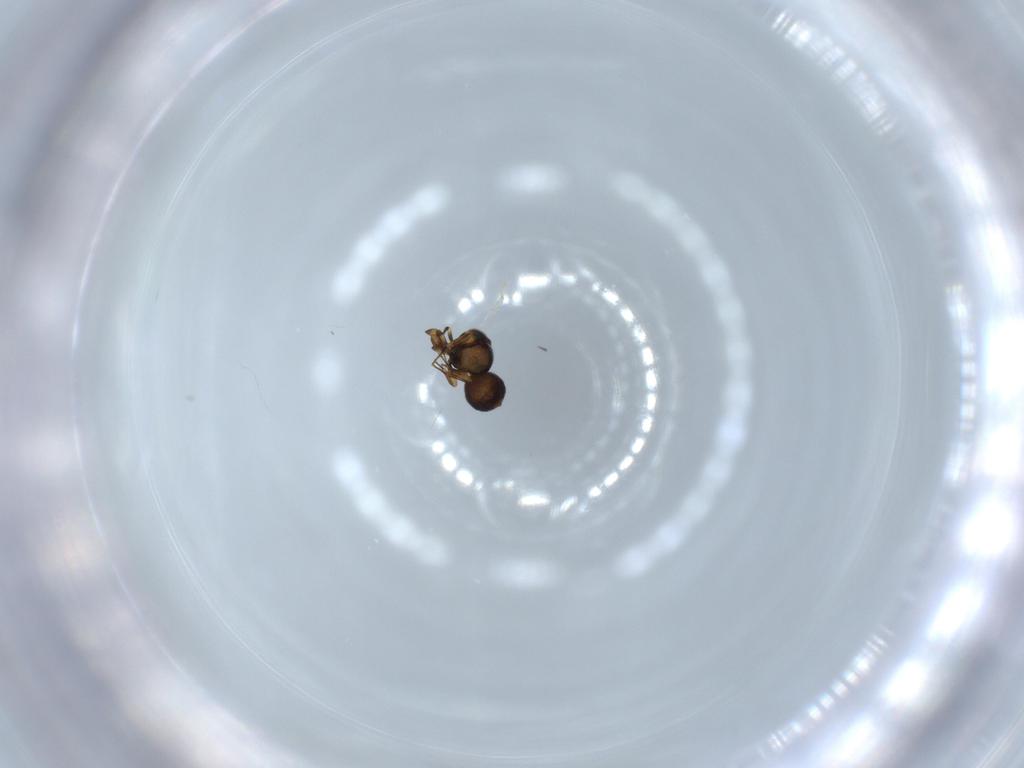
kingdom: Animalia
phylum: Arthropoda
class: Insecta
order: Hymenoptera
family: Scelionidae
